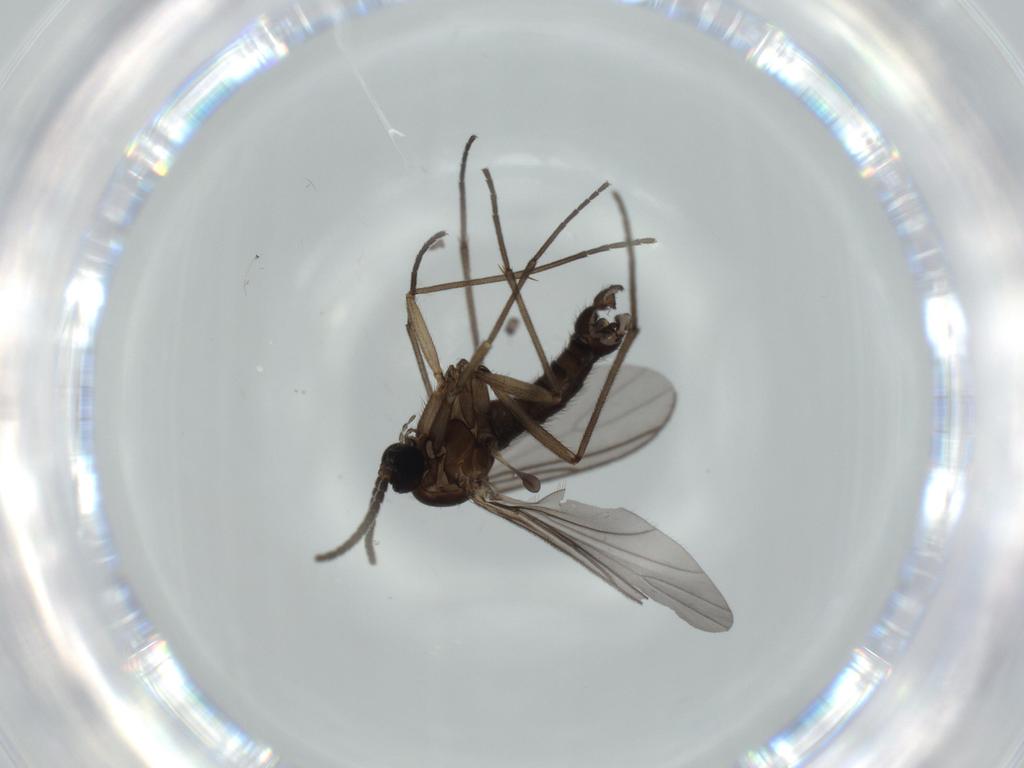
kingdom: Animalia
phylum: Arthropoda
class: Insecta
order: Diptera
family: Sciaridae
